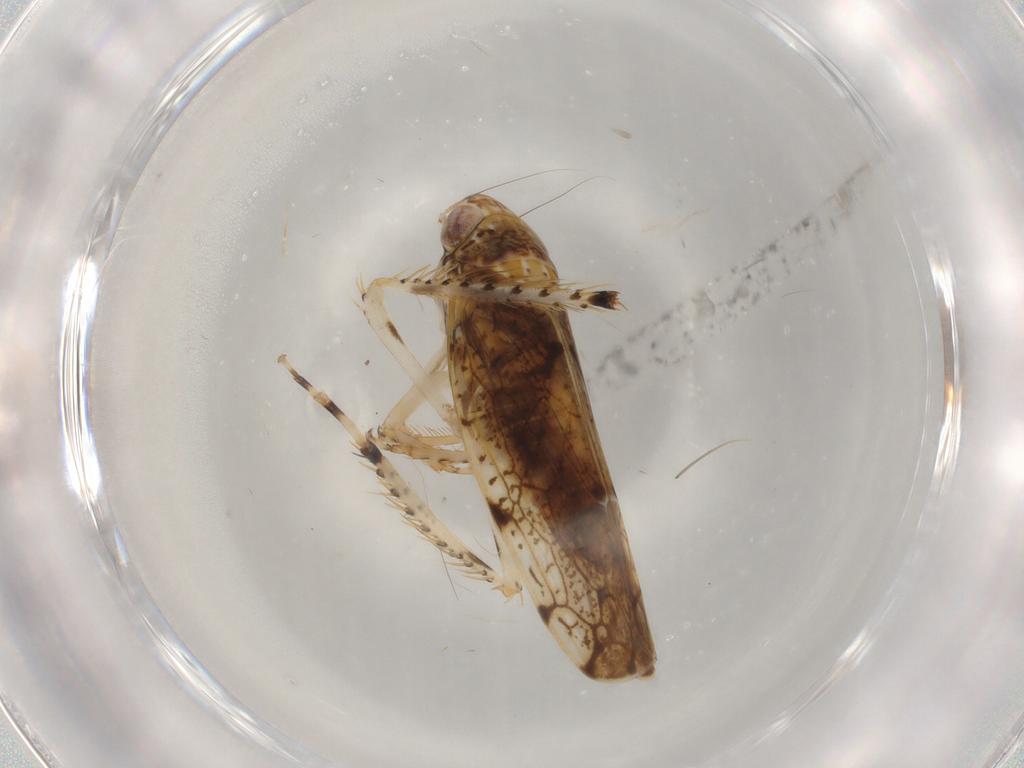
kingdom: Animalia
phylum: Arthropoda
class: Insecta
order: Hemiptera
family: Cicadellidae
